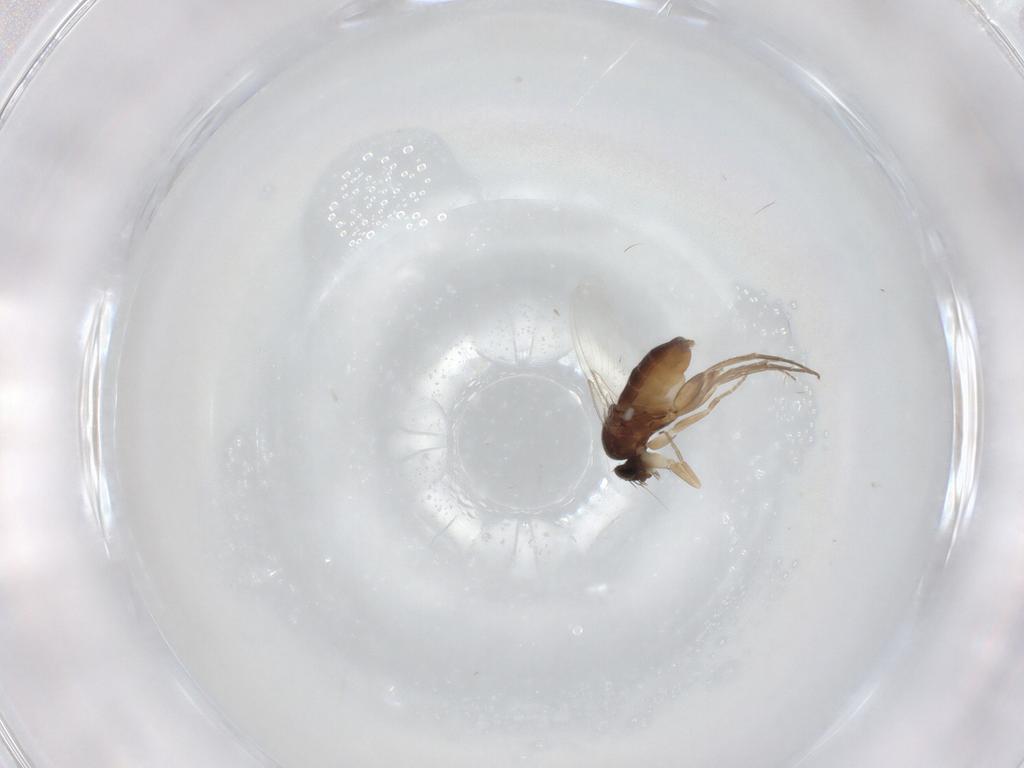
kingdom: Animalia
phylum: Arthropoda
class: Insecta
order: Diptera
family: Phoridae
